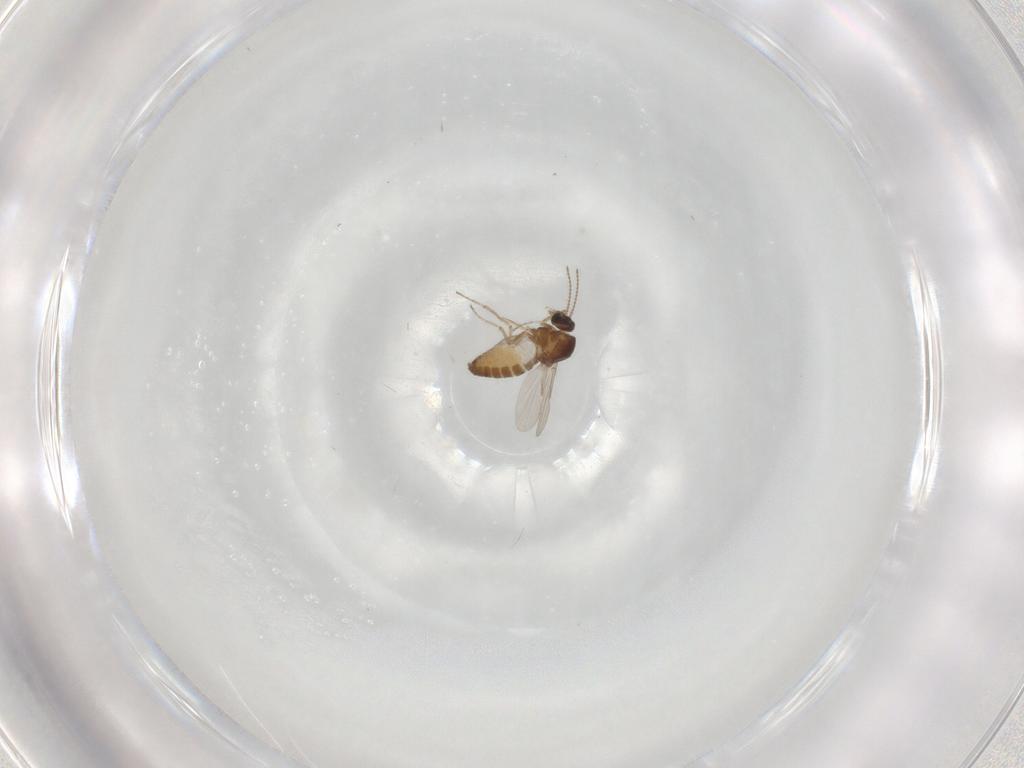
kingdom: Animalia
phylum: Arthropoda
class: Insecta
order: Diptera
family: Ceratopogonidae
